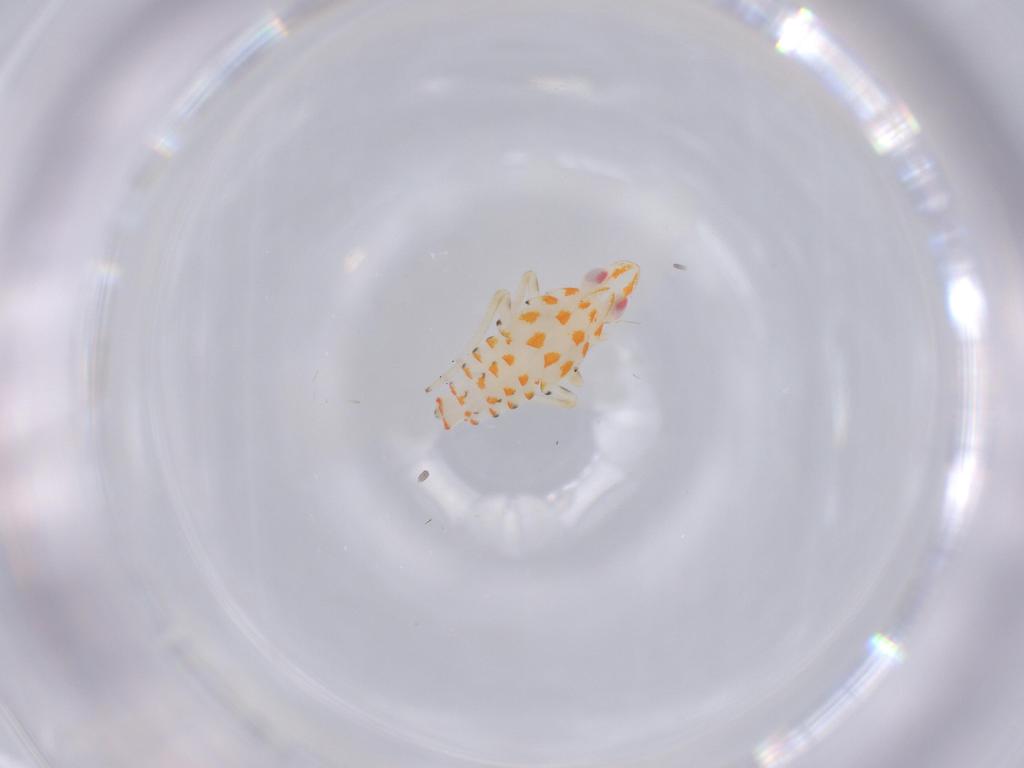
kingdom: Animalia
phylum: Arthropoda
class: Insecta
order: Hemiptera
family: Tropiduchidae
